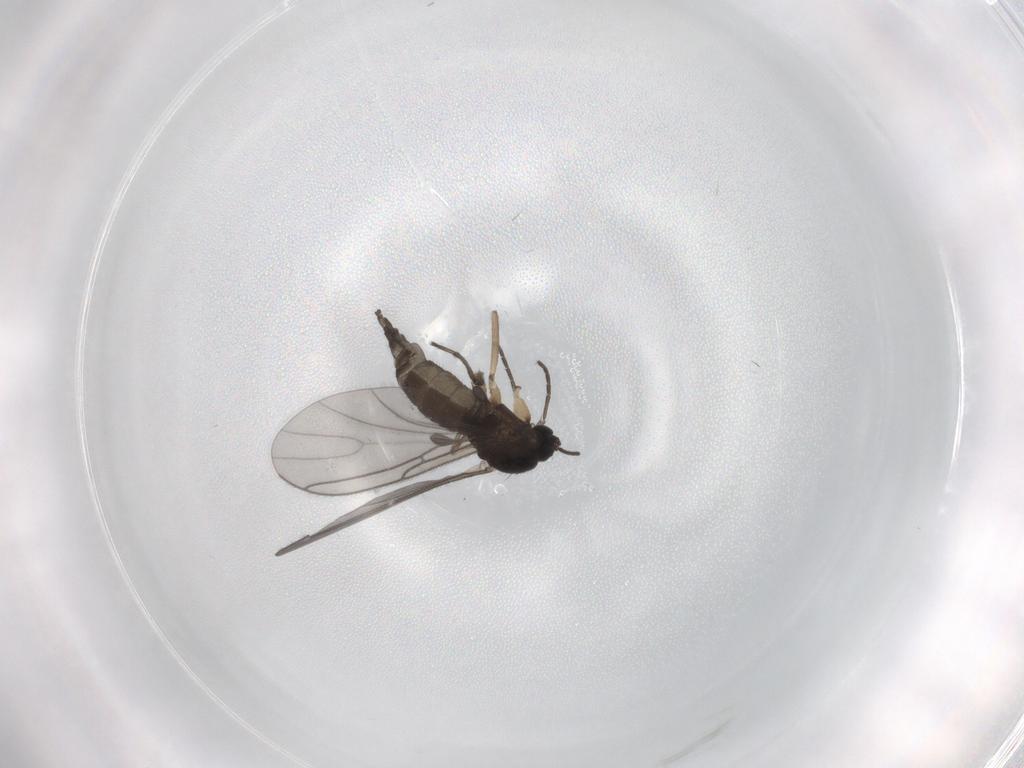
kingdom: Animalia
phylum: Arthropoda
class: Insecta
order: Diptera
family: Sciaridae
